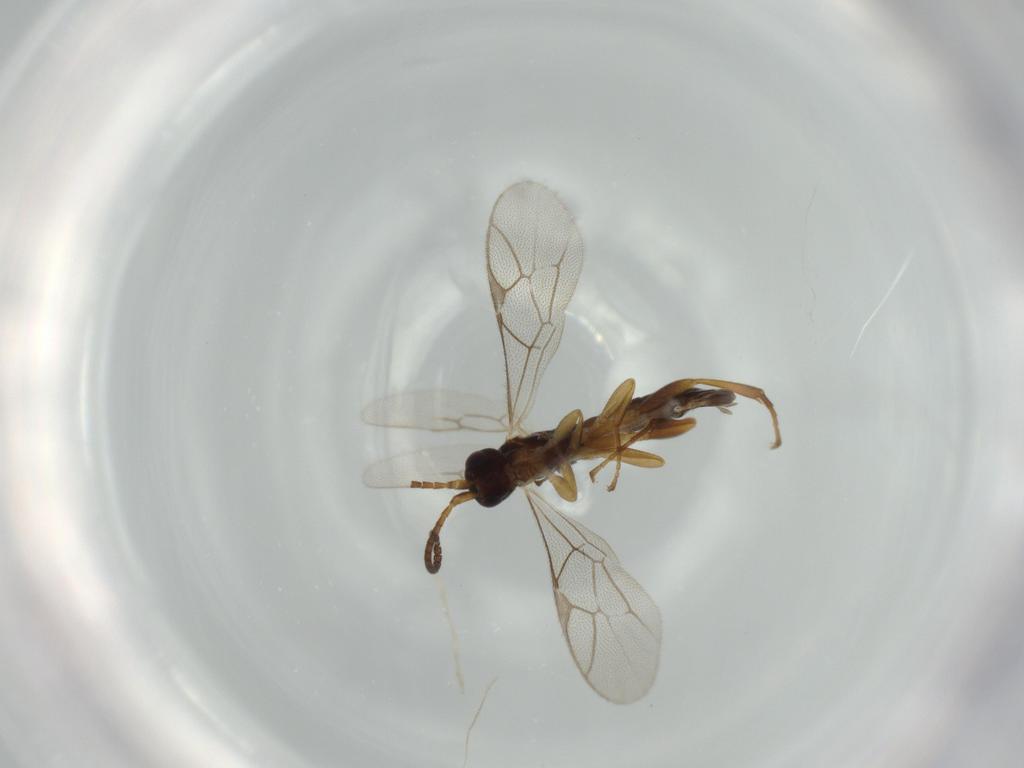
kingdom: Animalia
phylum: Arthropoda
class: Insecta
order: Hymenoptera
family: Ichneumonidae
